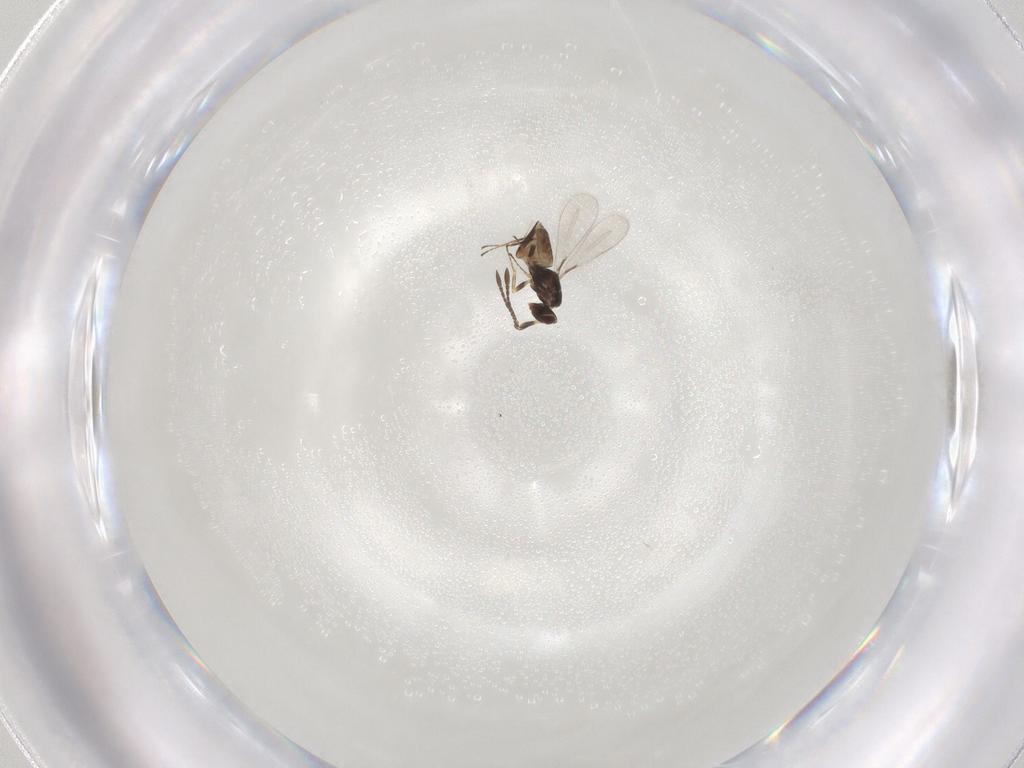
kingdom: Animalia
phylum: Arthropoda
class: Insecta
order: Hymenoptera
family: Mymaridae
